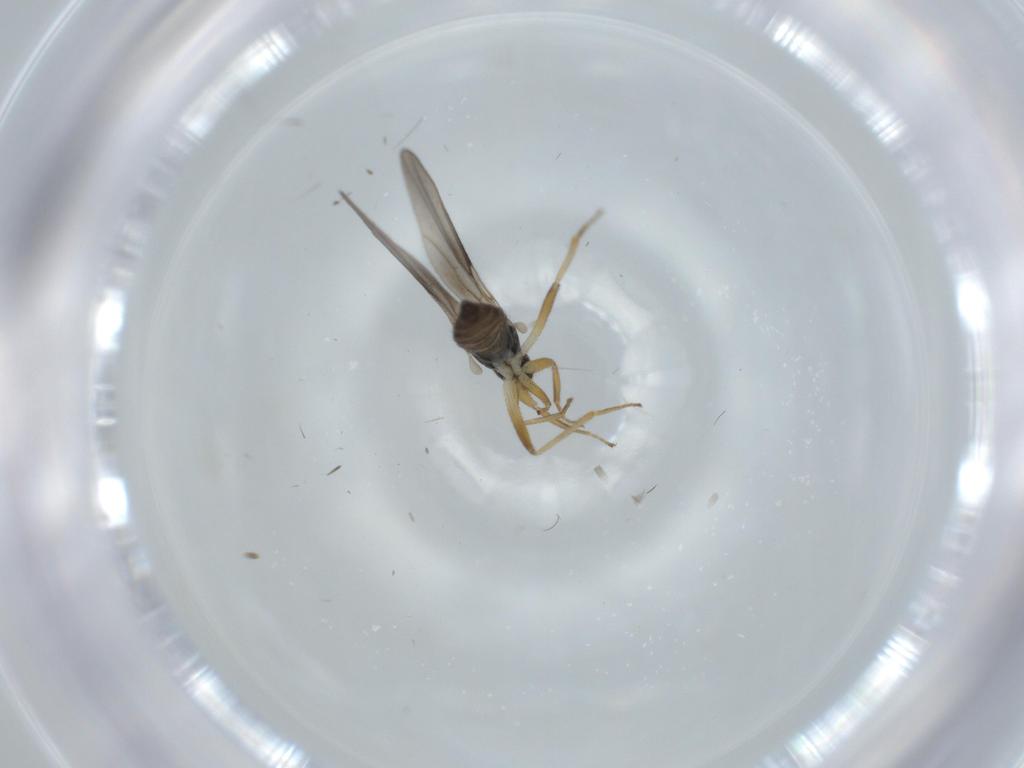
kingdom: Animalia
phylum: Arthropoda
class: Insecta
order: Diptera
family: Hybotidae
